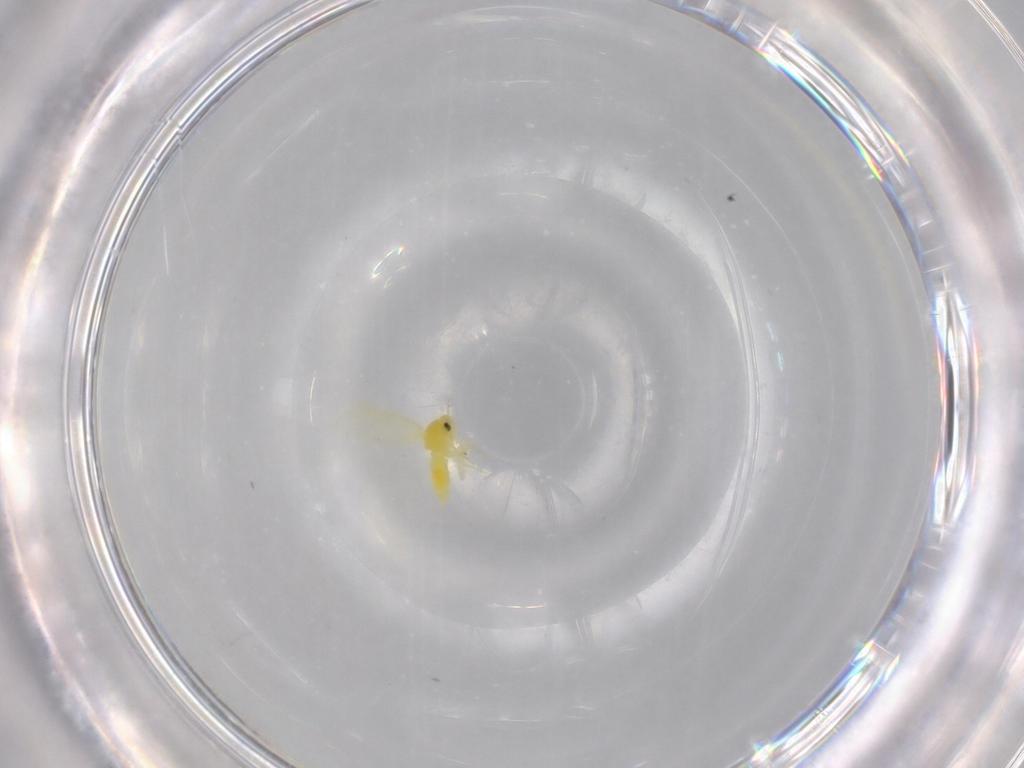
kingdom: Animalia
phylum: Arthropoda
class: Insecta
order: Hemiptera
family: Aleyrodidae
